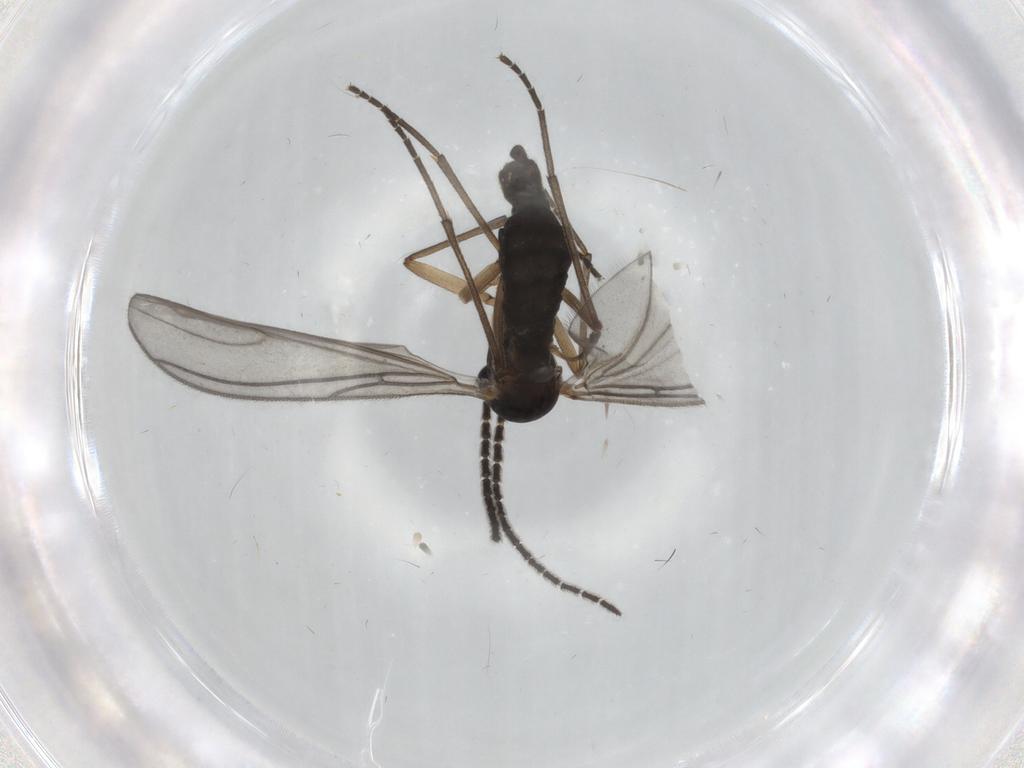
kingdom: Animalia
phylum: Arthropoda
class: Insecta
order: Diptera
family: Sciaridae
